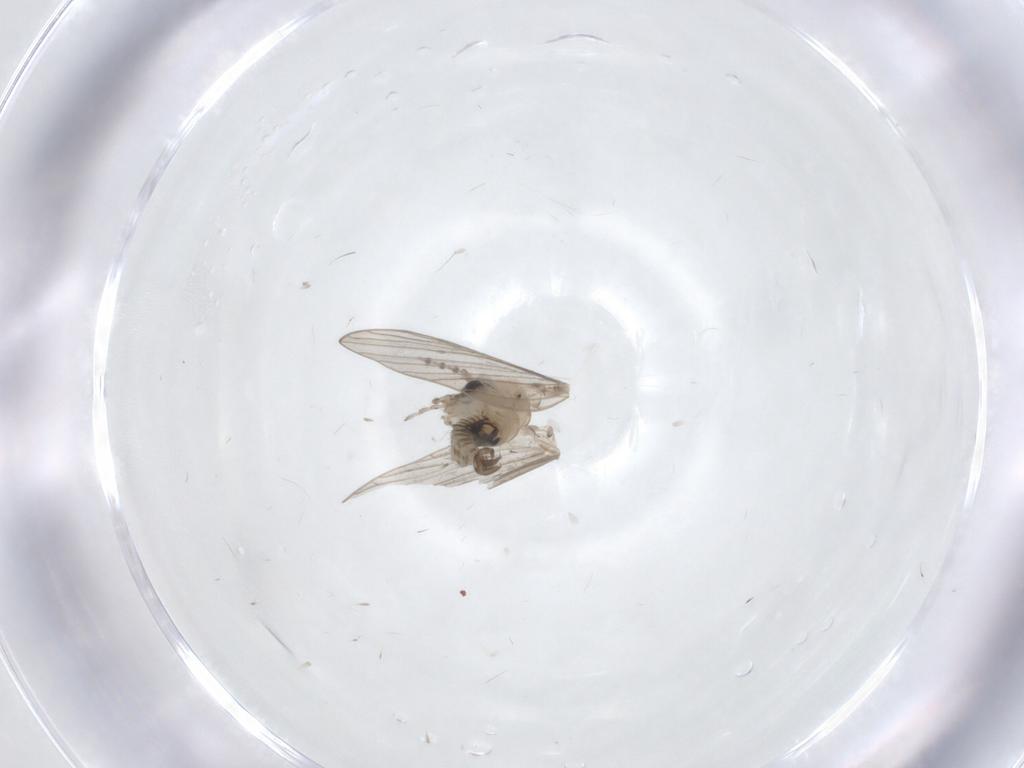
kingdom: Animalia
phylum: Arthropoda
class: Insecta
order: Diptera
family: Psychodidae
